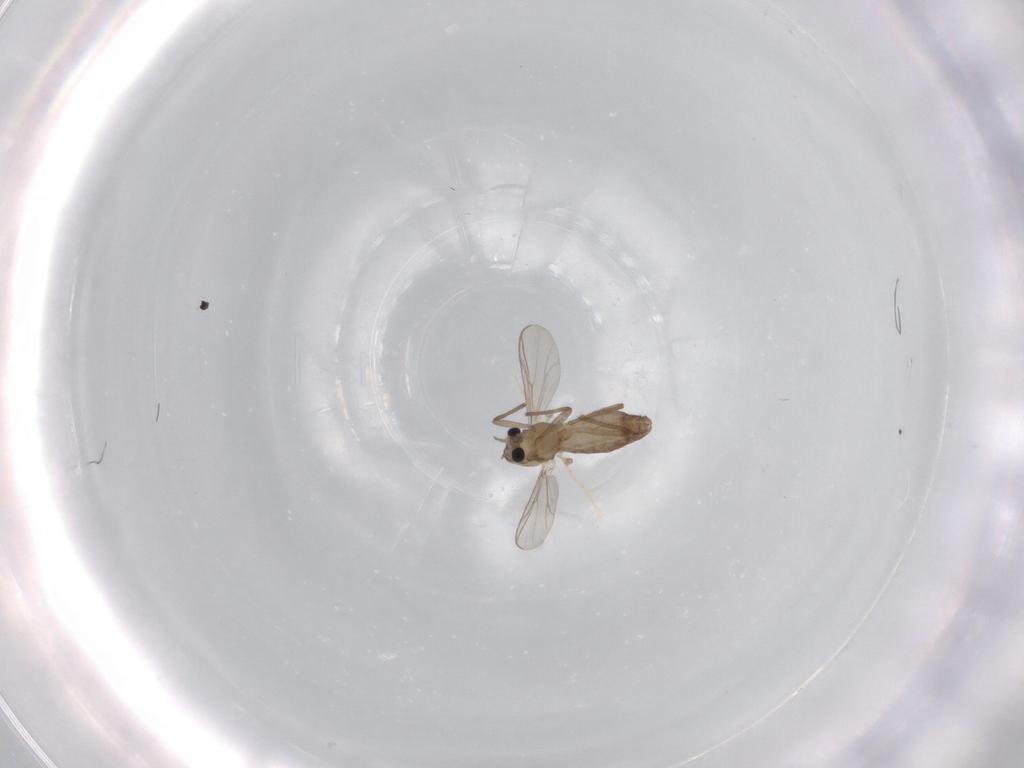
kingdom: Animalia
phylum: Arthropoda
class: Insecta
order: Diptera
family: Chironomidae
